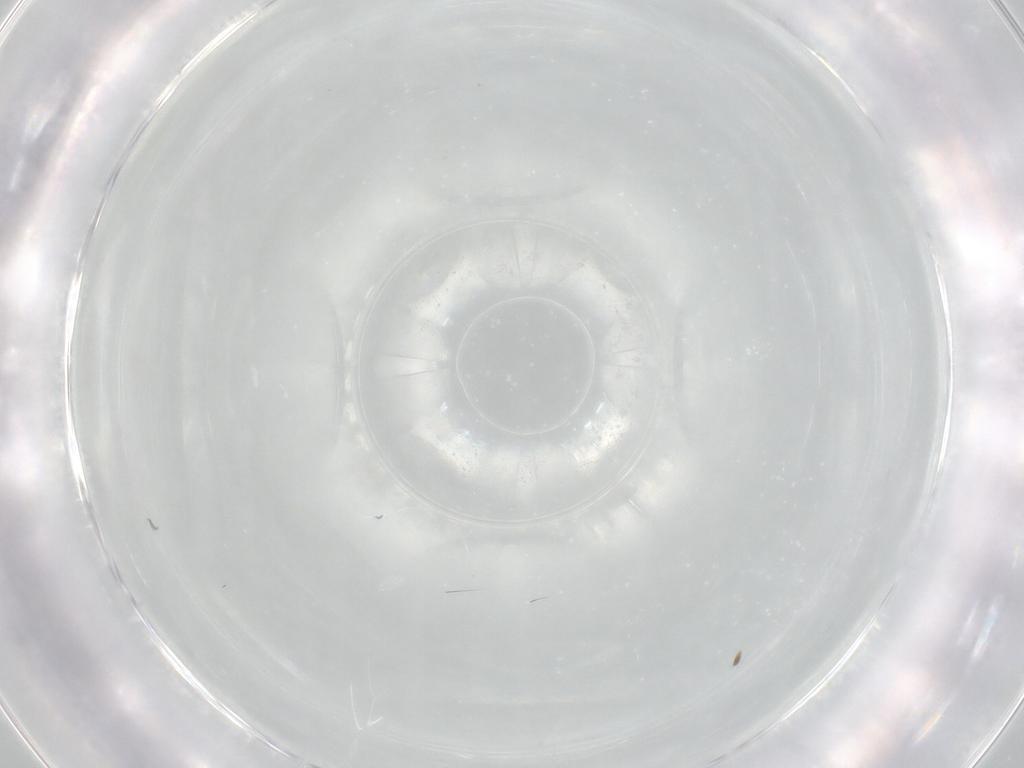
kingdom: Animalia
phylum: Arthropoda
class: Insecta
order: Diptera
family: Tipulidae
